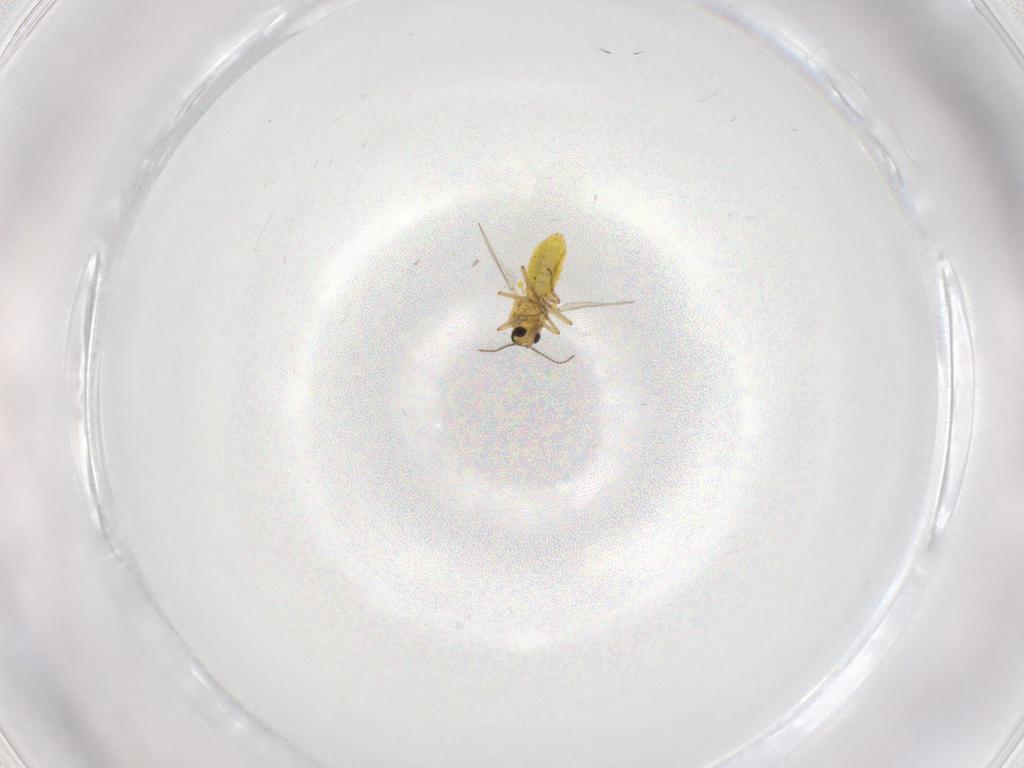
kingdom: Animalia
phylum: Arthropoda
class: Insecta
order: Diptera
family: Ceratopogonidae
